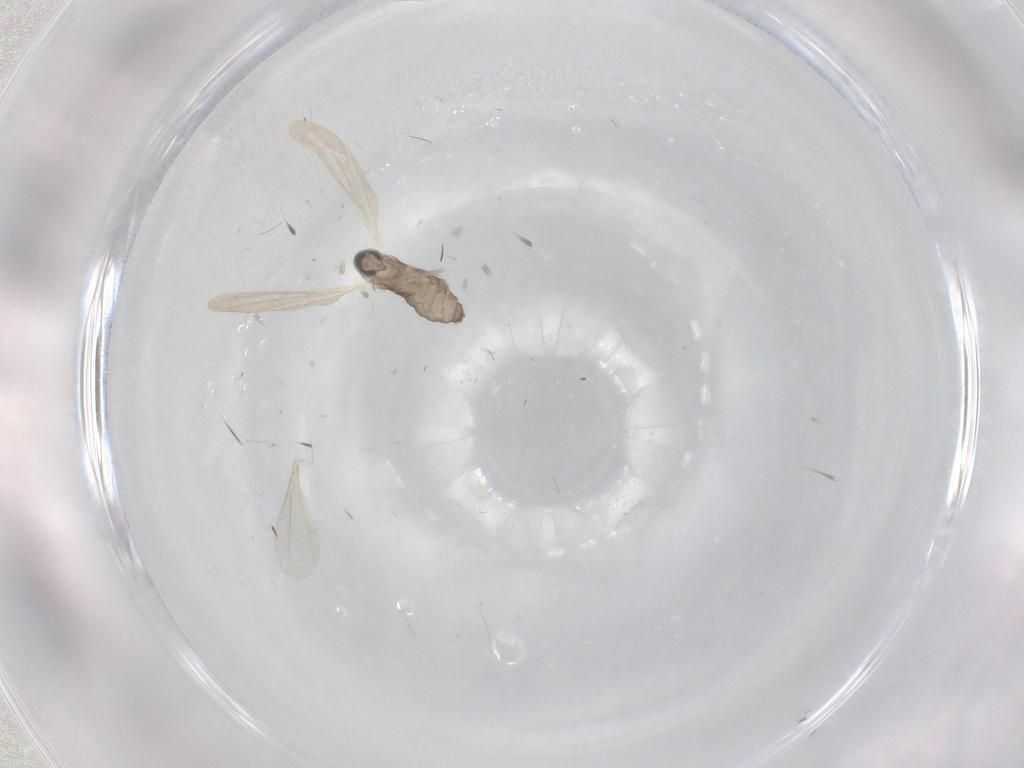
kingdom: Animalia
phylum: Arthropoda
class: Insecta
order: Diptera
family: Cecidomyiidae
